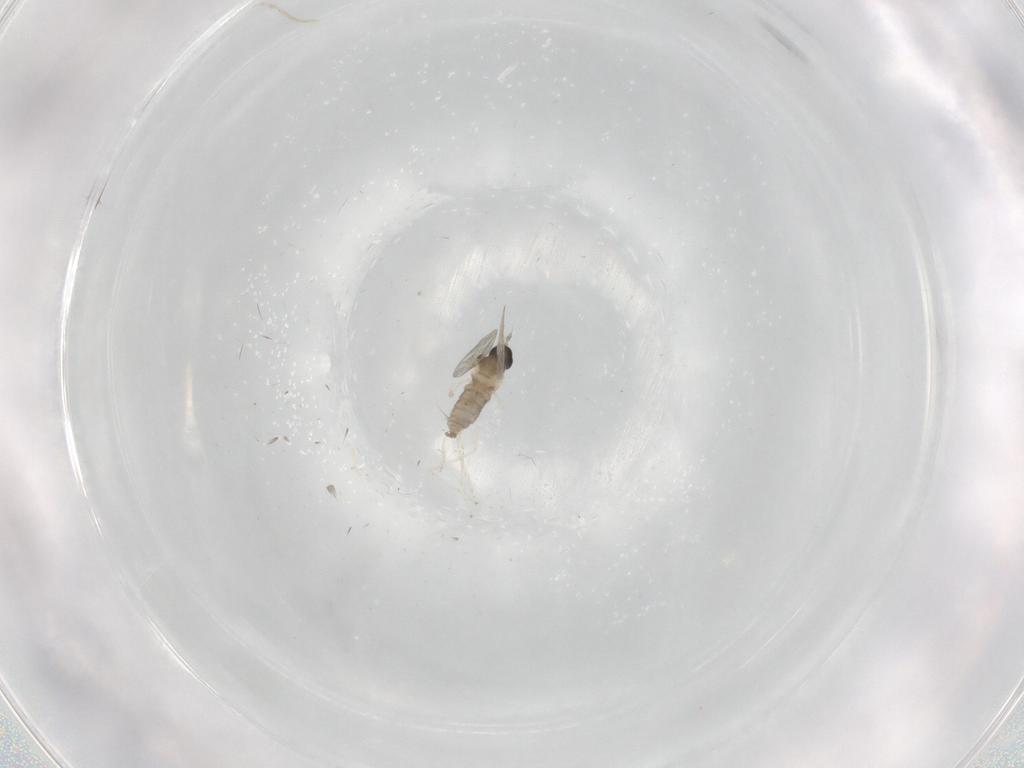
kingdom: Animalia
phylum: Arthropoda
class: Insecta
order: Diptera
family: Cecidomyiidae
